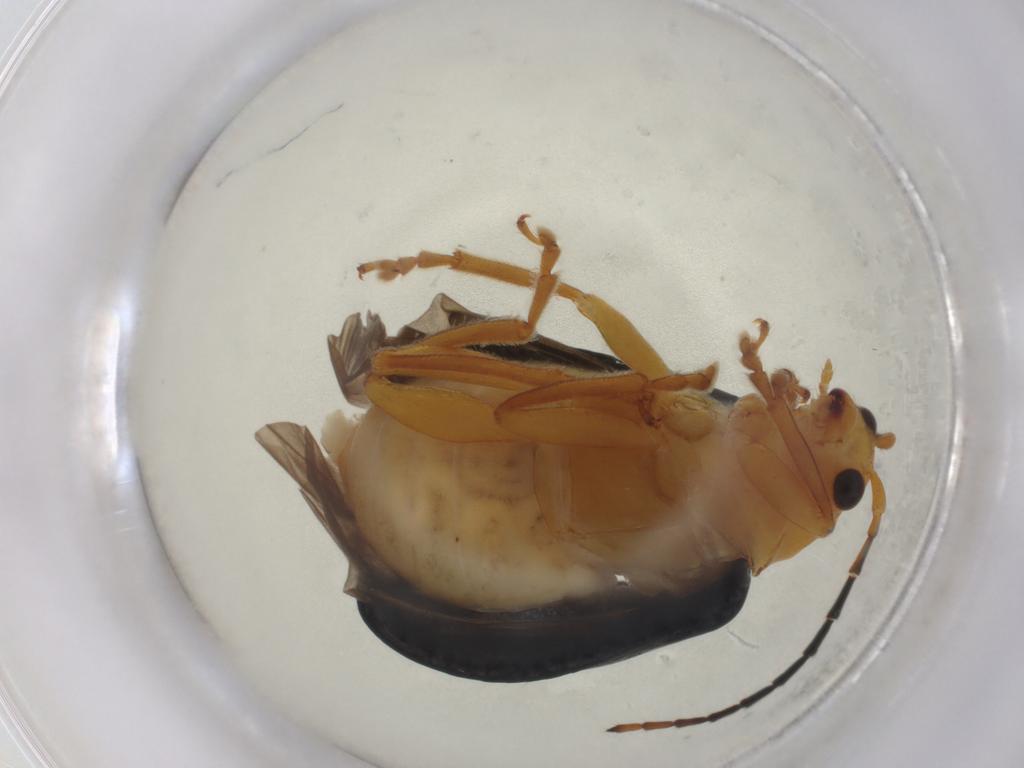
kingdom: Animalia
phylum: Arthropoda
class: Insecta
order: Coleoptera
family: Chrysomelidae
